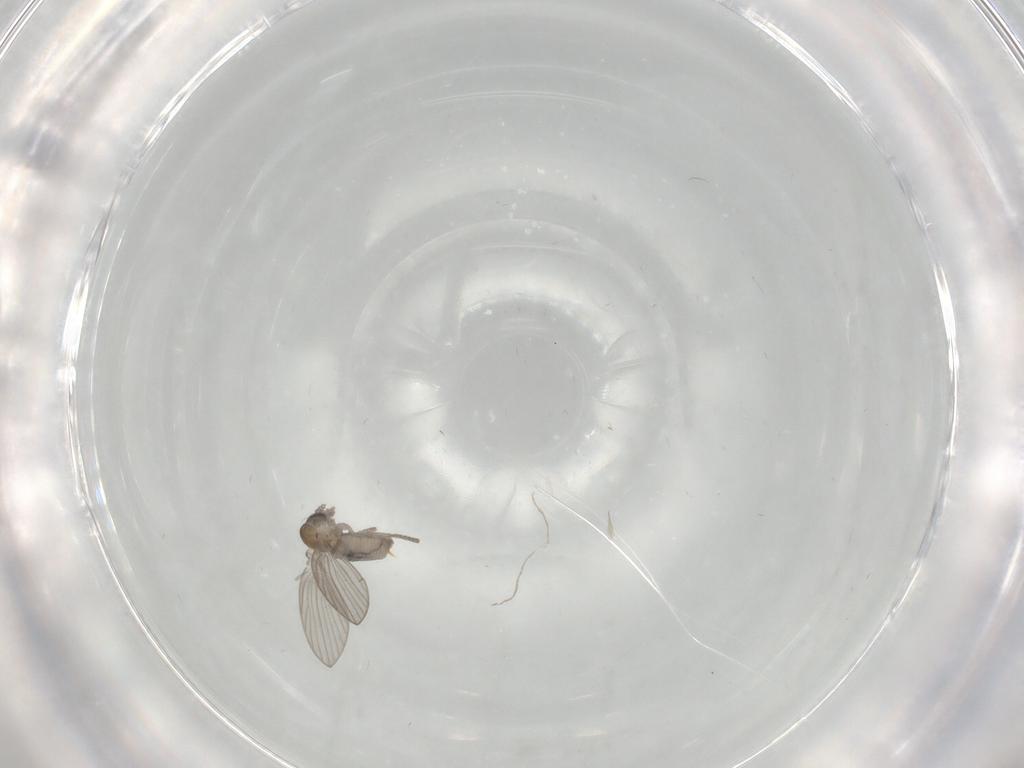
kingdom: Animalia
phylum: Arthropoda
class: Insecta
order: Diptera
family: Psychodidae
